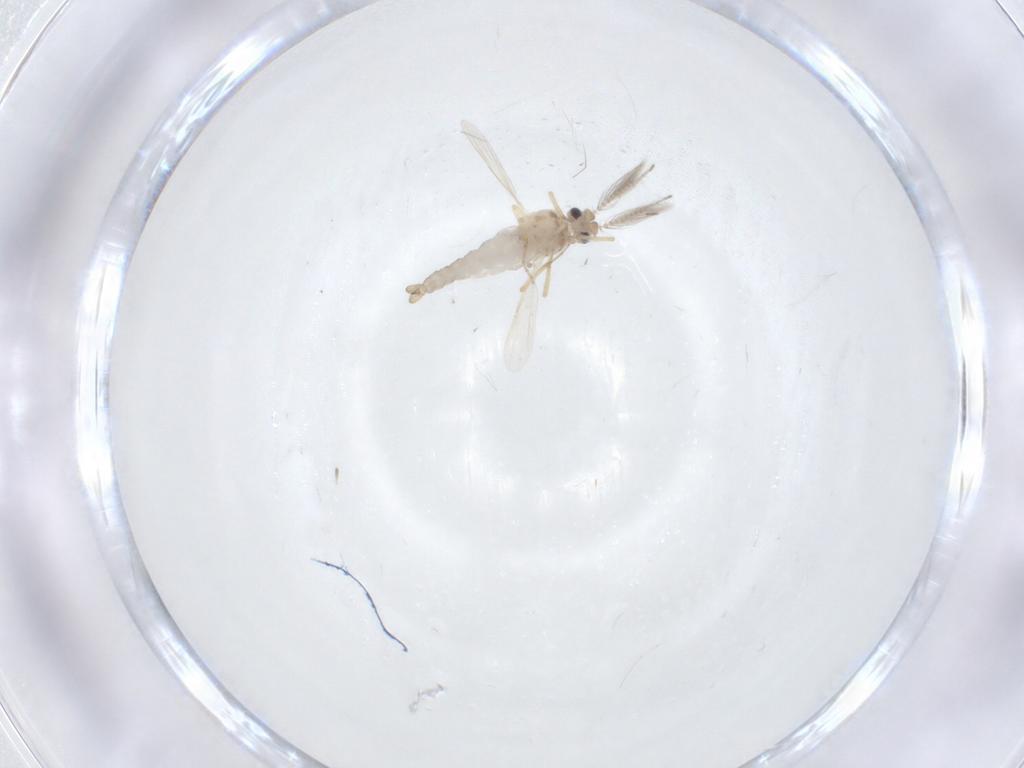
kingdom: Animalia
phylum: Arthropoda
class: Insecta
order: Diptera
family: Ceratopogonidae
